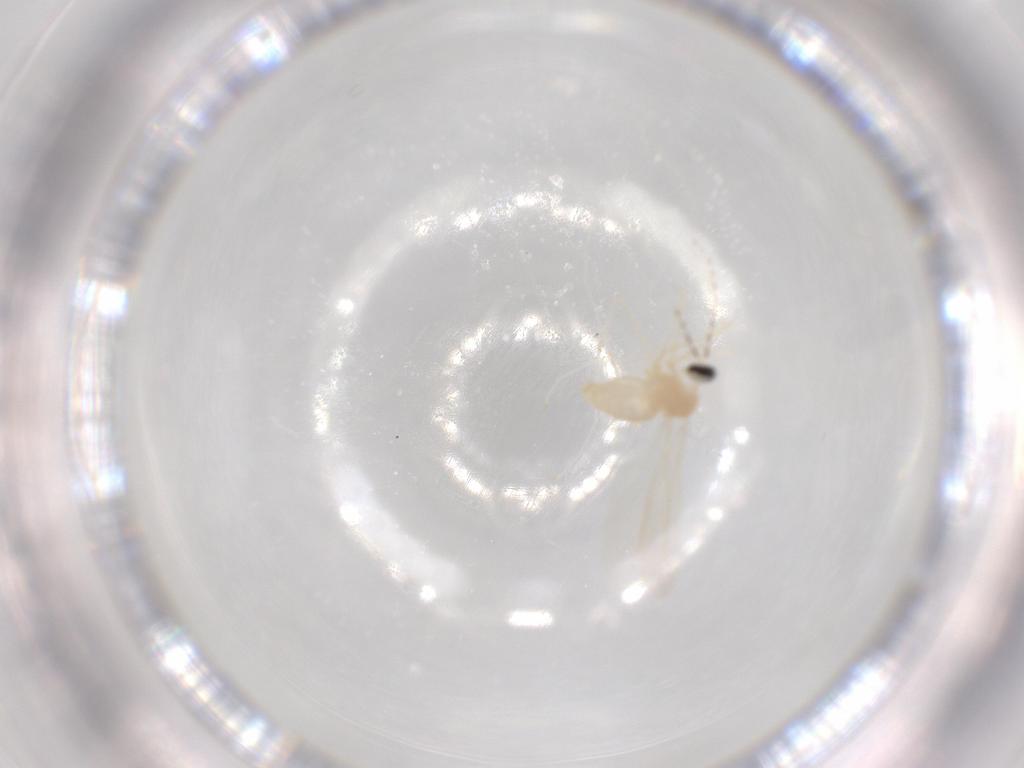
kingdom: Animalia
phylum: Arthropoda
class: Insecta
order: Diptera
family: Cecidomyiidae
